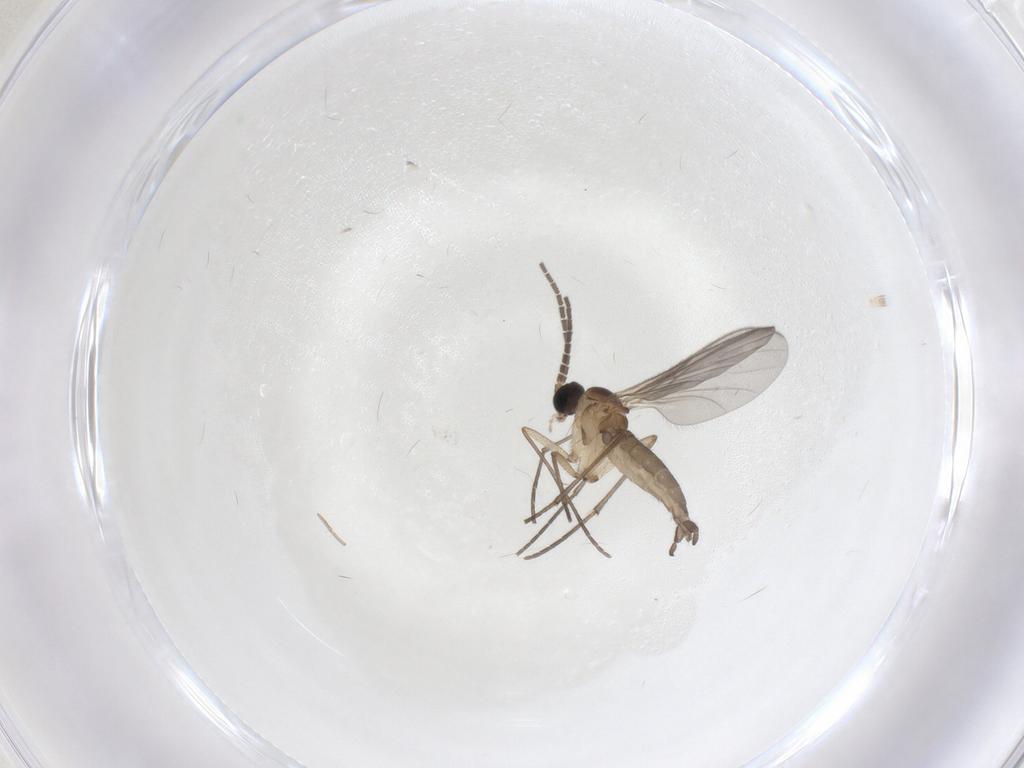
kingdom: Animalia
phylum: Arthropoda
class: Insecta
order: Diptera
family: Sciaridae
